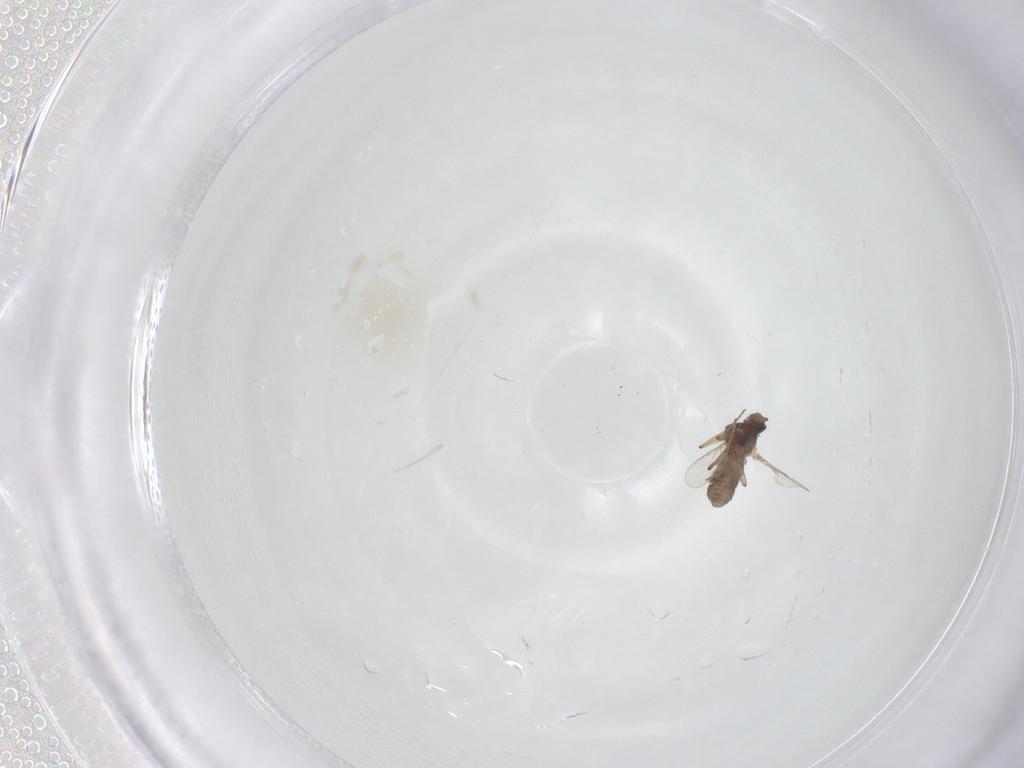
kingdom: Animalia
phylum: Arthropoda
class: Insecta
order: Diptera
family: Ceratopogonidae
